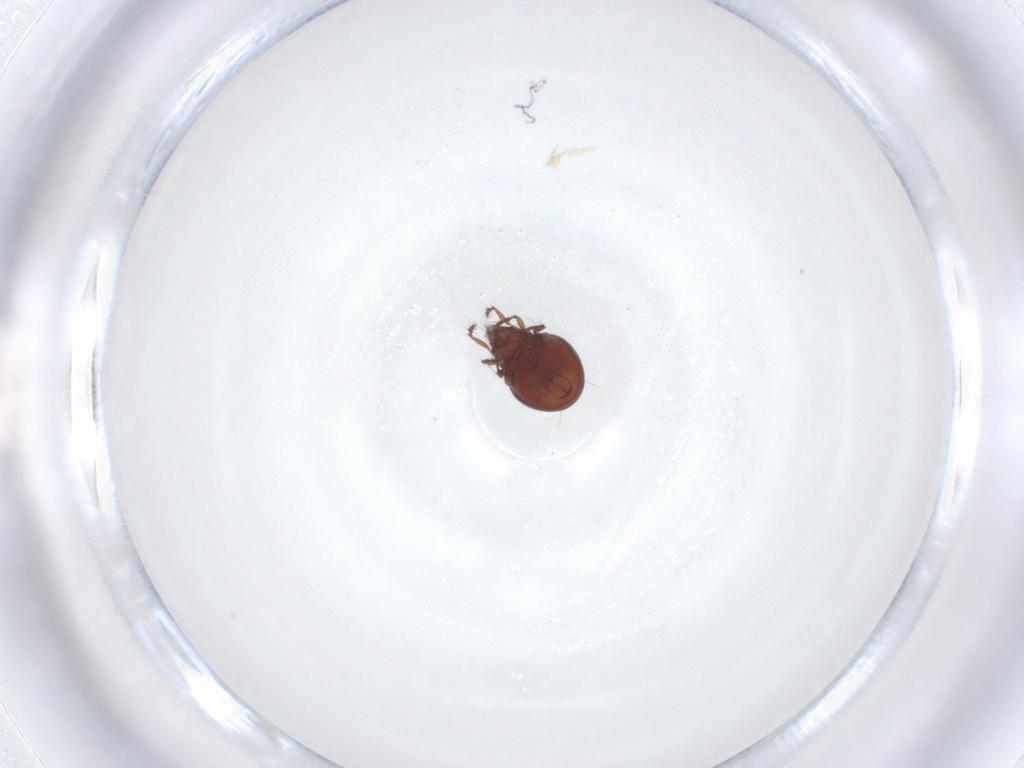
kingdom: Animalia
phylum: Arthropoda
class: Arachnida
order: Sarcoptiformes
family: Ceratoppiidae
